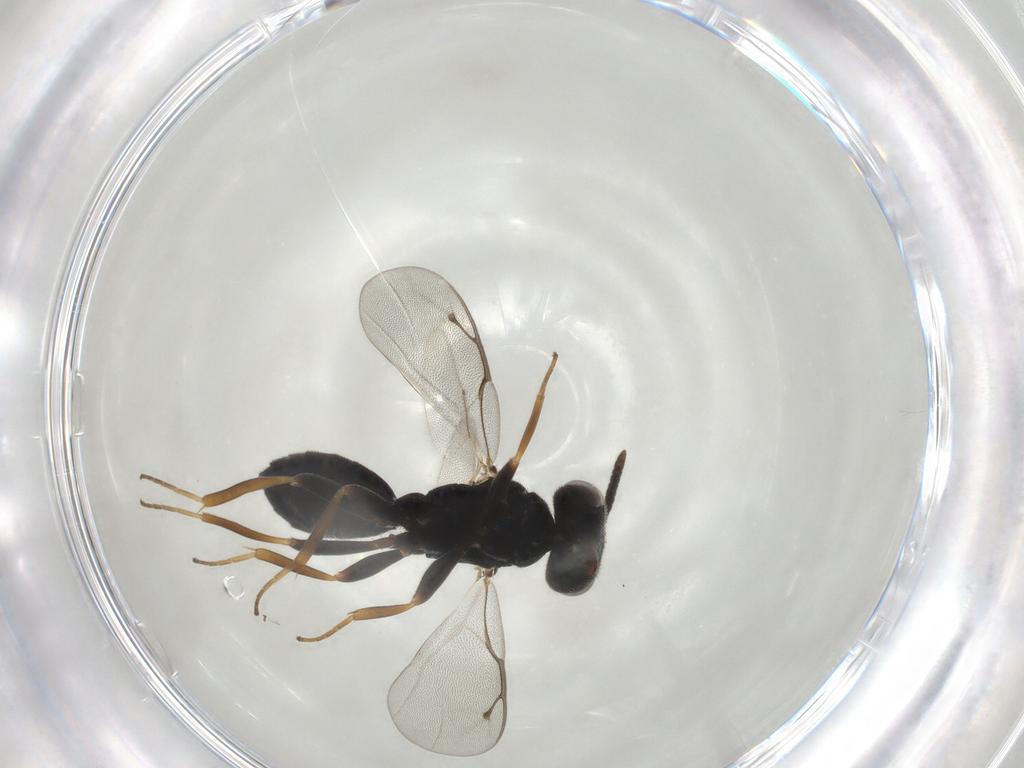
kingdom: Animalia
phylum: Arthropoda
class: Insecta
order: Hymenoptera
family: Pteromalidae
